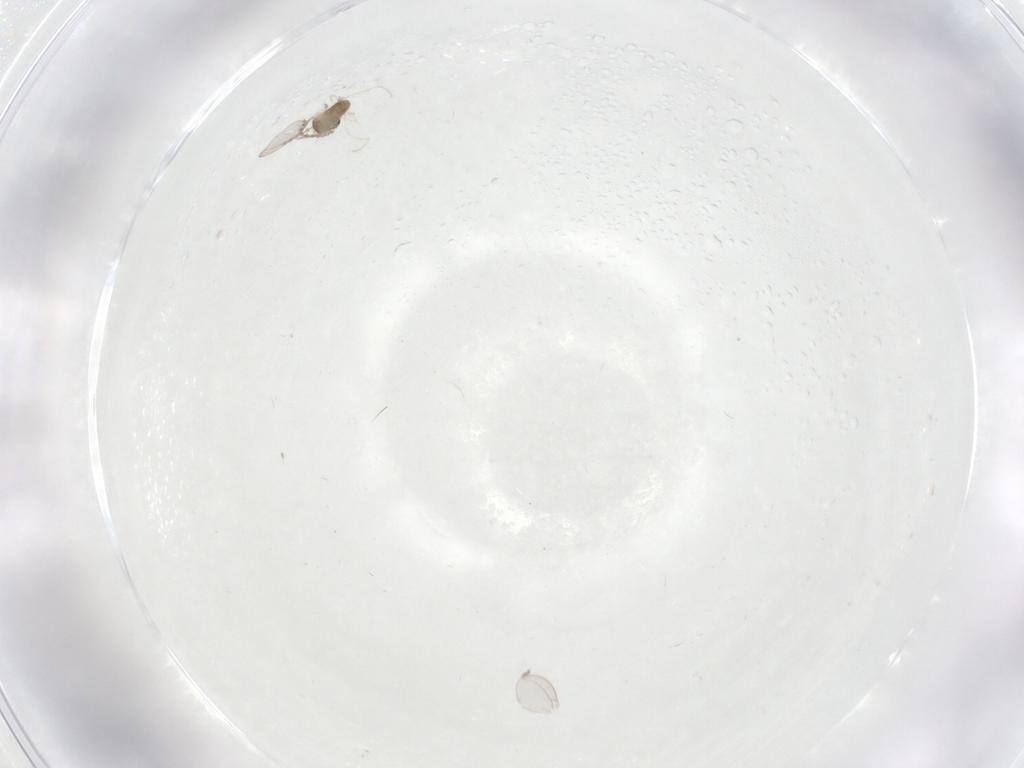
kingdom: Animalia
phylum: Arthropoda
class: Insecta
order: Diptera
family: Cecidomyiidae
